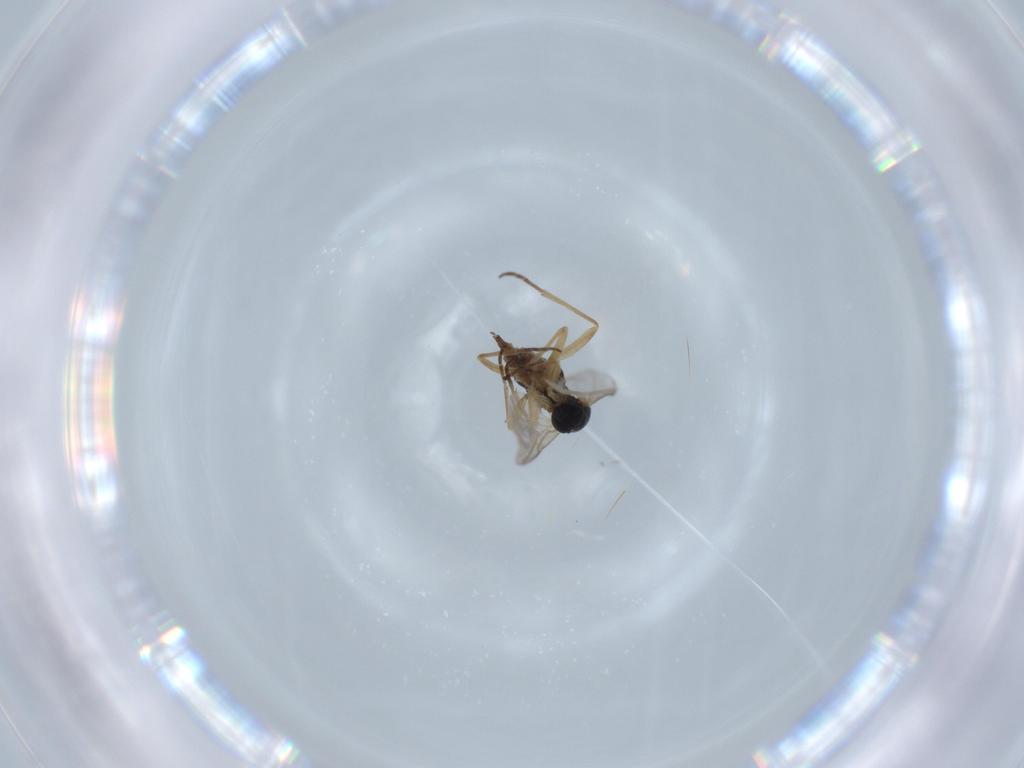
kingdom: Animalia
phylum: Arthropoda
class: Insecta
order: Diptera
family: Sciaridae
